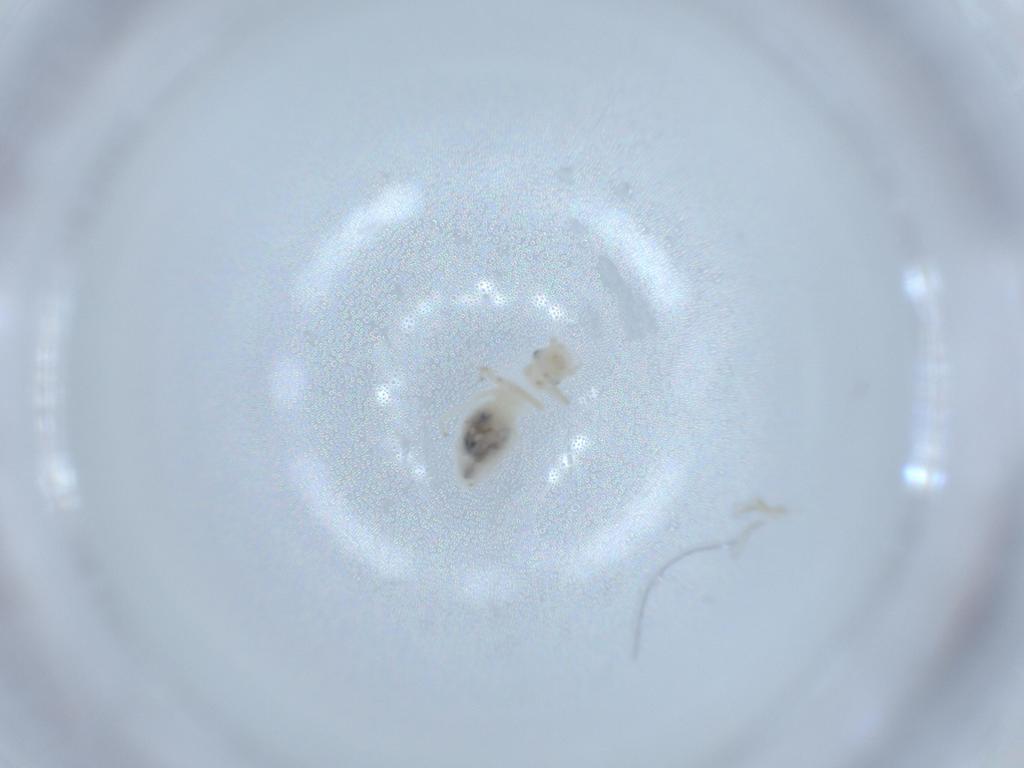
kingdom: Animalia
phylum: Arthropoda
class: Insecta
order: Psocodea
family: Caeciliusidae
